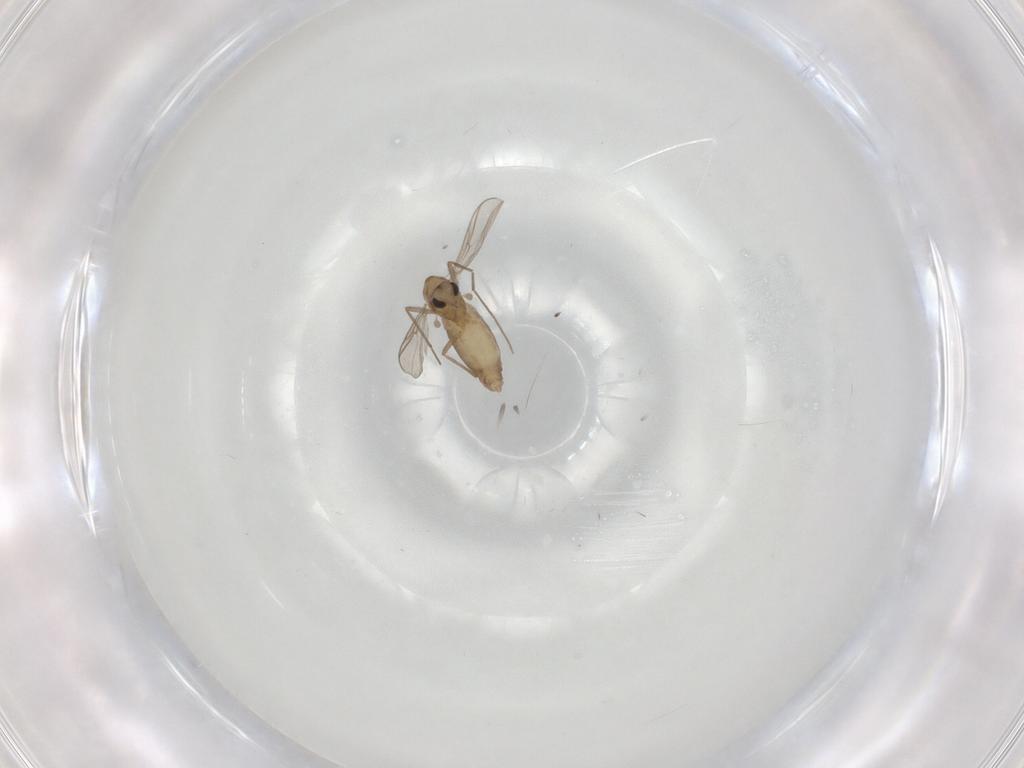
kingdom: Animalia
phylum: Arthropoda
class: Insecta
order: Diptera
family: Chironomidae
